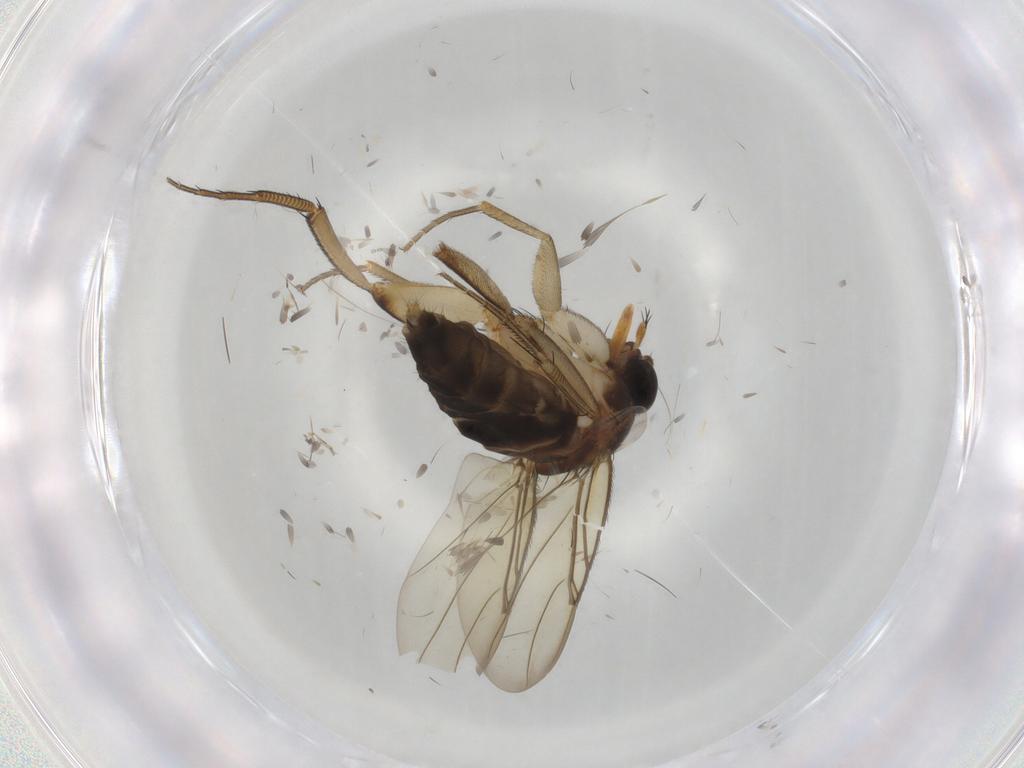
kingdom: Animalia
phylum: Arthropoda
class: Insecta
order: Diptera
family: Phoridae
